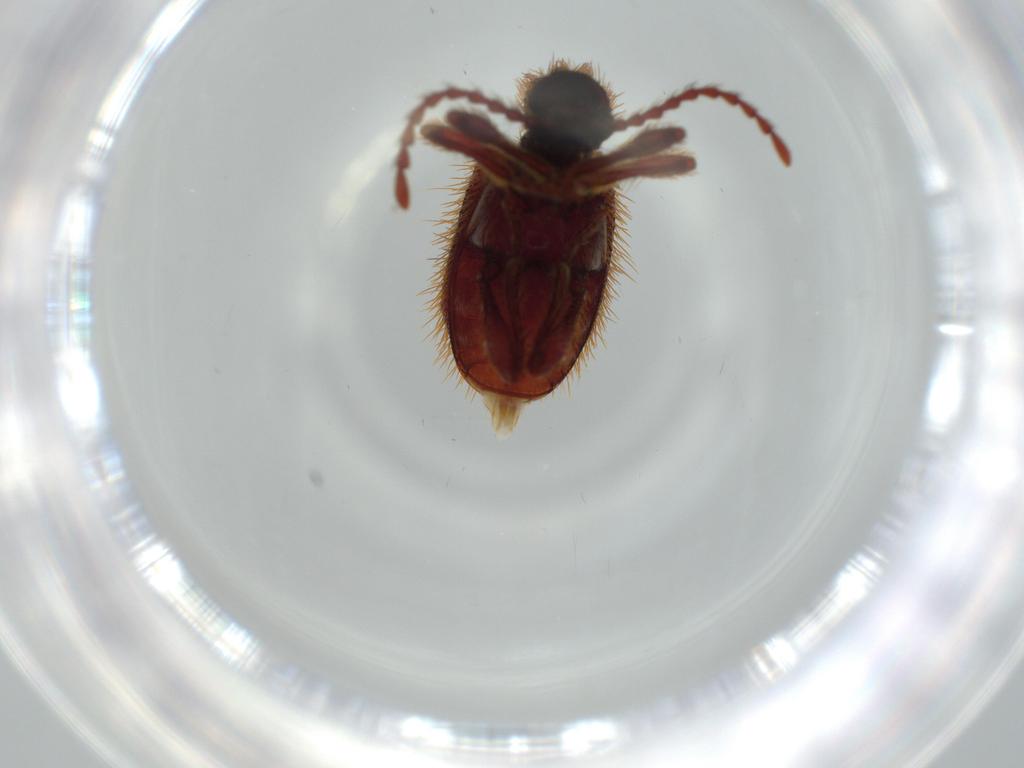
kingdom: Animalia
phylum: Arthropoda
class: Insecta
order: Coleoptera
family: Ptinidae
